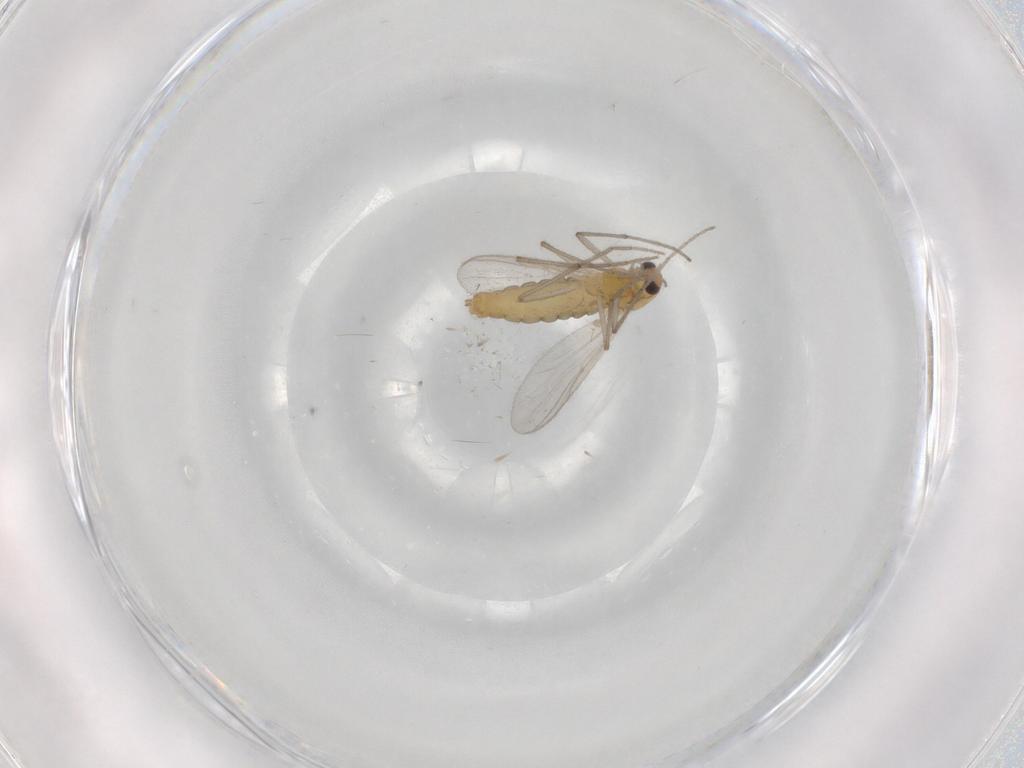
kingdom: Animalia
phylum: Arthropoda
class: Insecta
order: Diptera
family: Chironomidae
